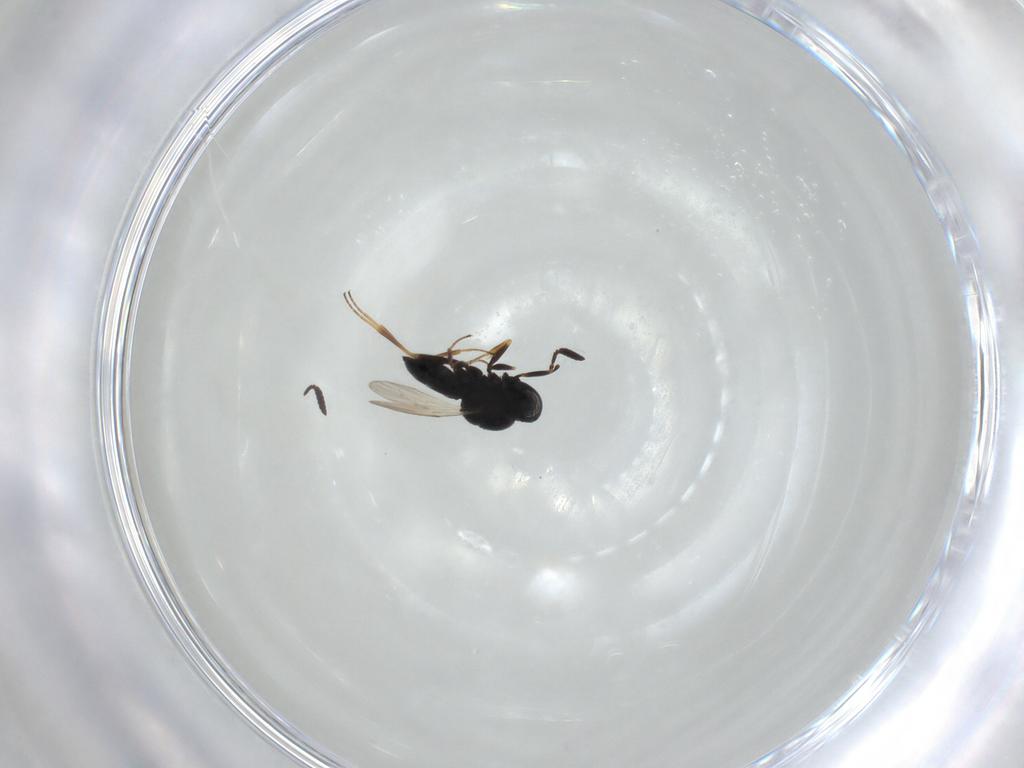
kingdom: Animalia
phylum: Arthropoda
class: Insecta
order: Hymenoptera
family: Scelionidae
